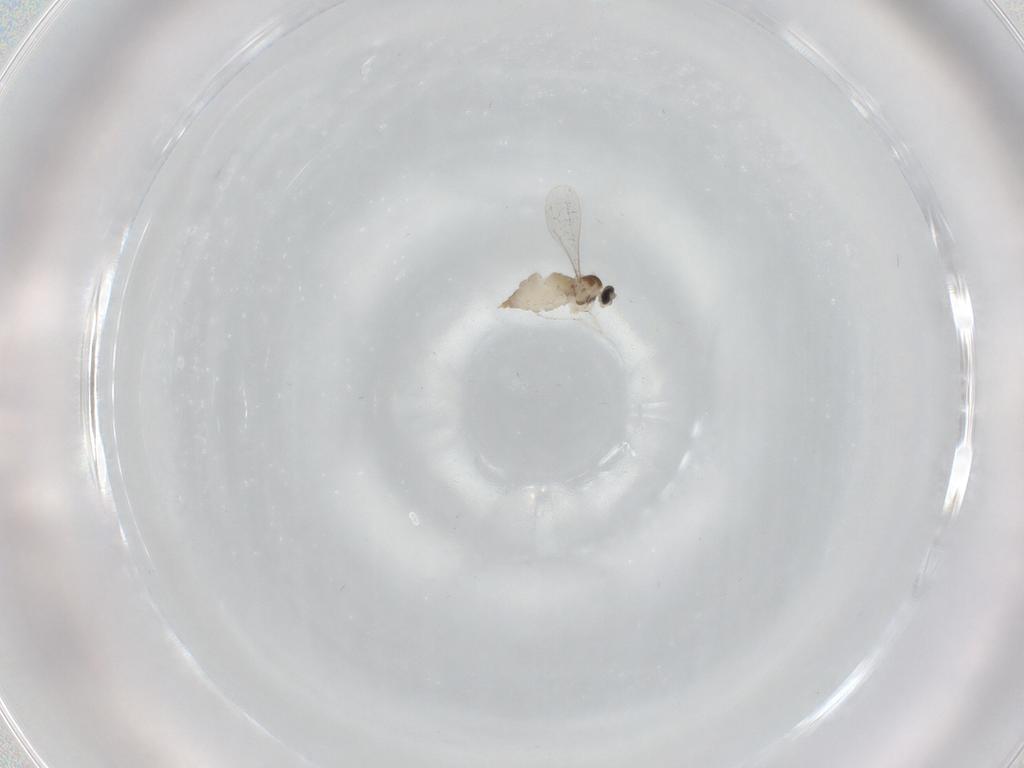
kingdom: Animalia
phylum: Arthropoda
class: Insecta
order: Diptera
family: Cecidomyiidae
